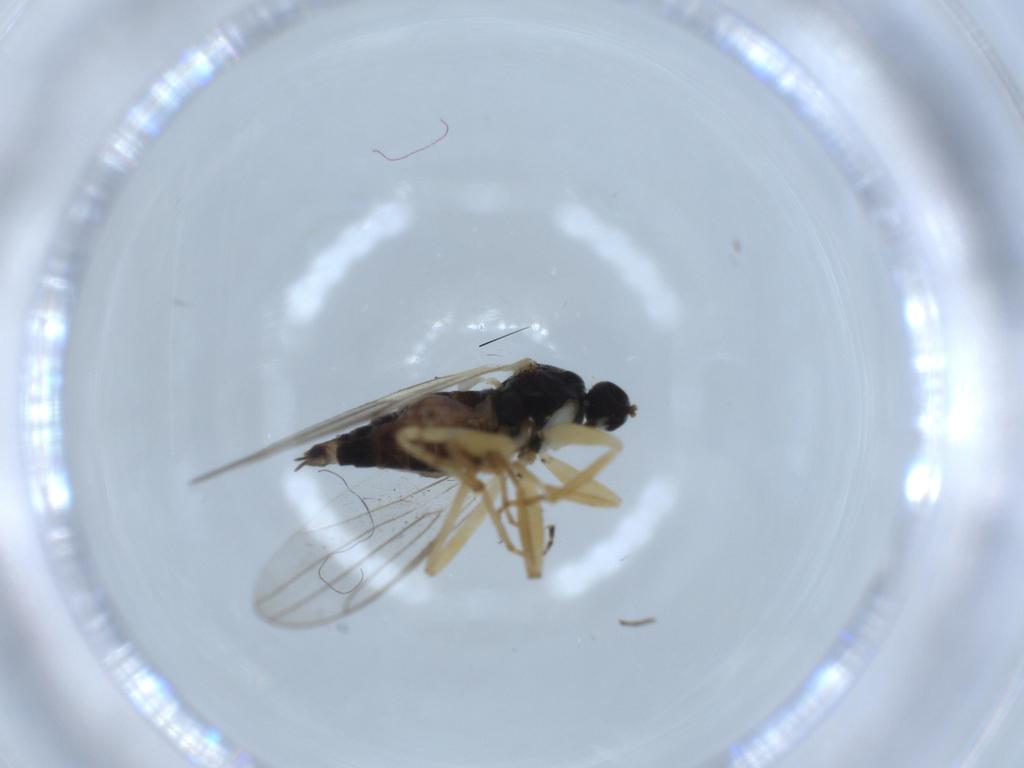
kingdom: Animalia
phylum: Arthropoda
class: Insecta
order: Diptera
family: Hybotidae
